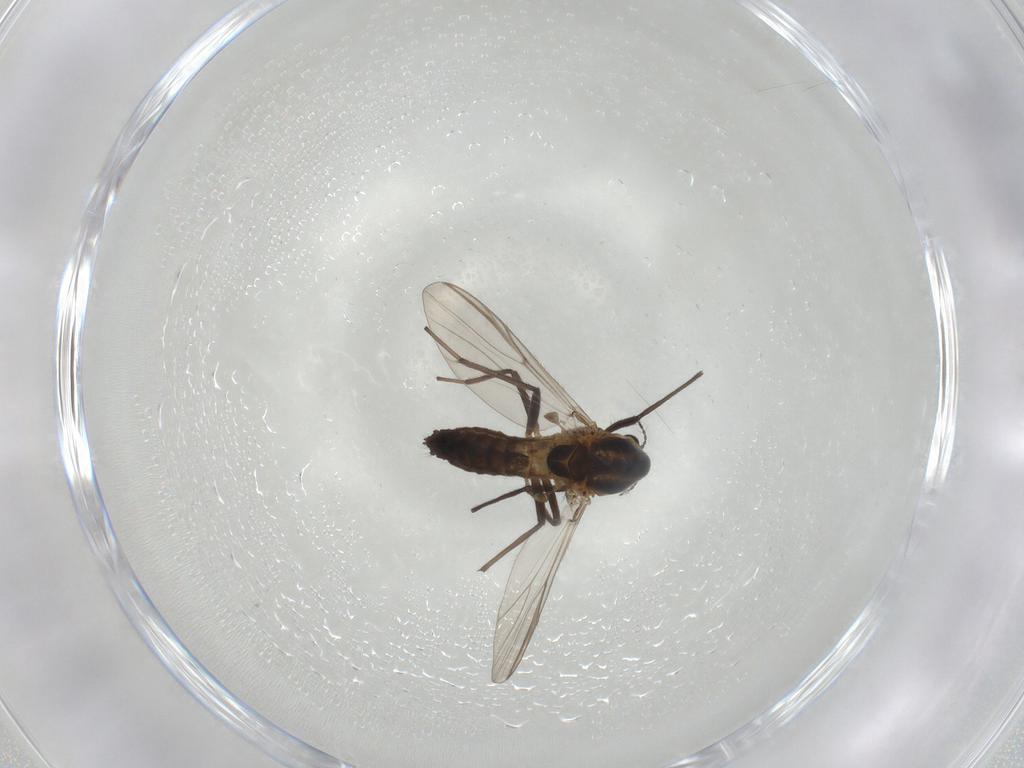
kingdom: Animalia
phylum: Arthropoda
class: Insecta
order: Diptera
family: Chironomidae
